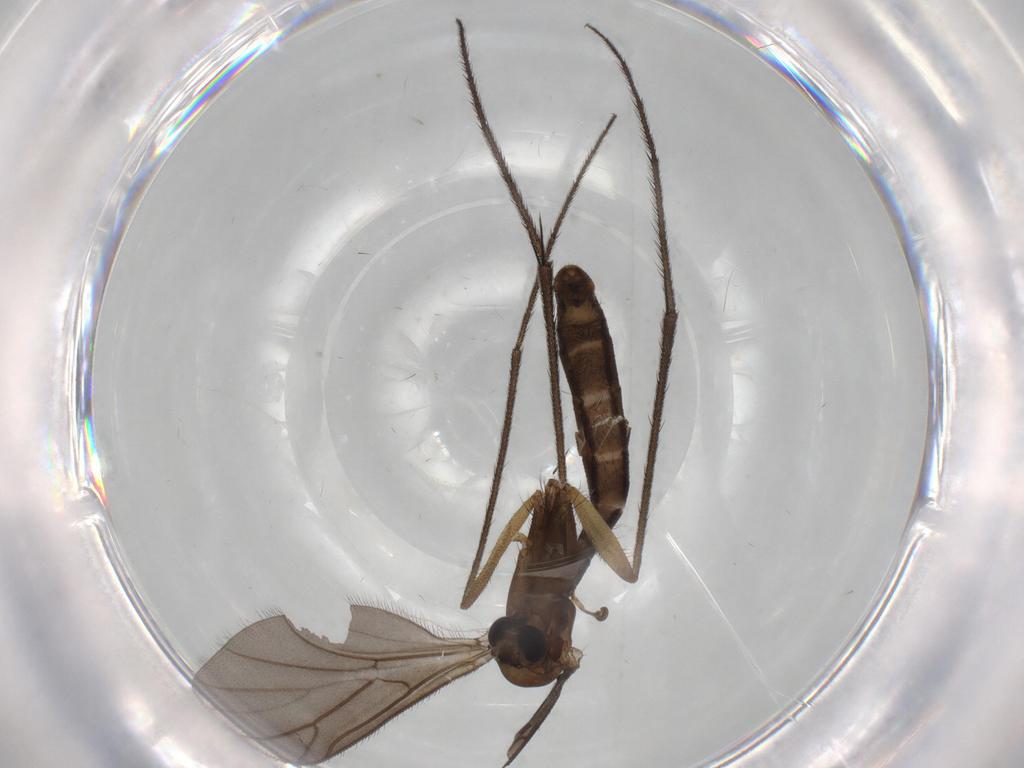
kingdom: Animalia
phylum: Arthropoda
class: Insecta
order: Diptera
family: Ditomyiidae
